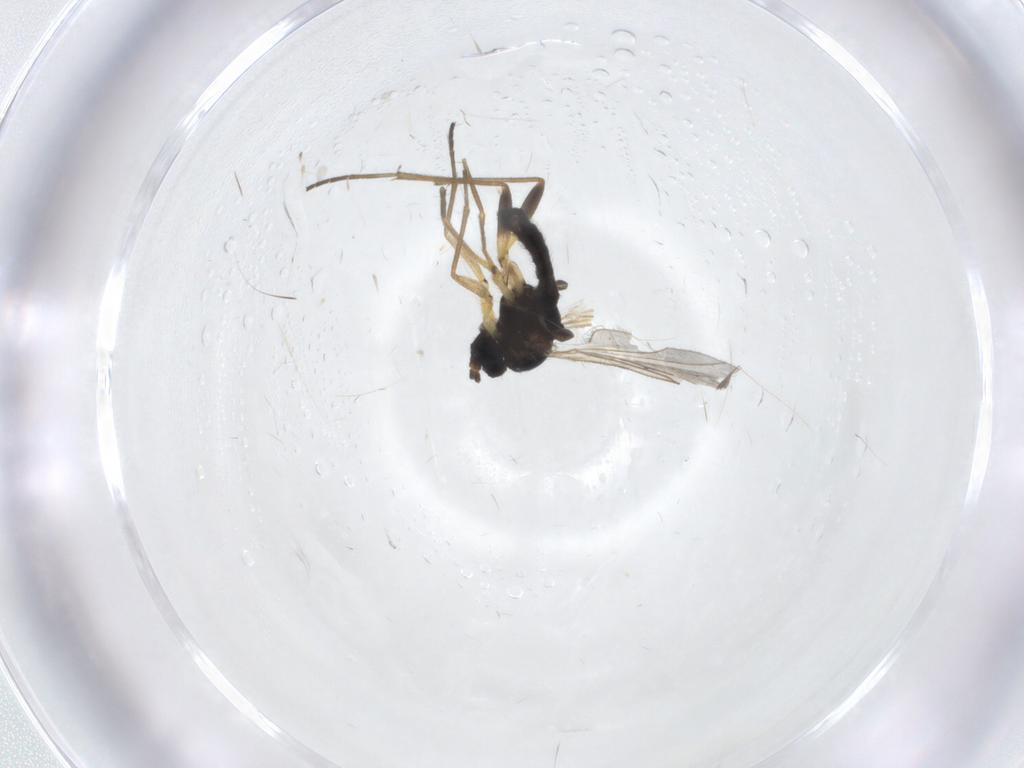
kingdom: Animalia
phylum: Arthropoda
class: Insecta
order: Diptera
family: Sciaridae
